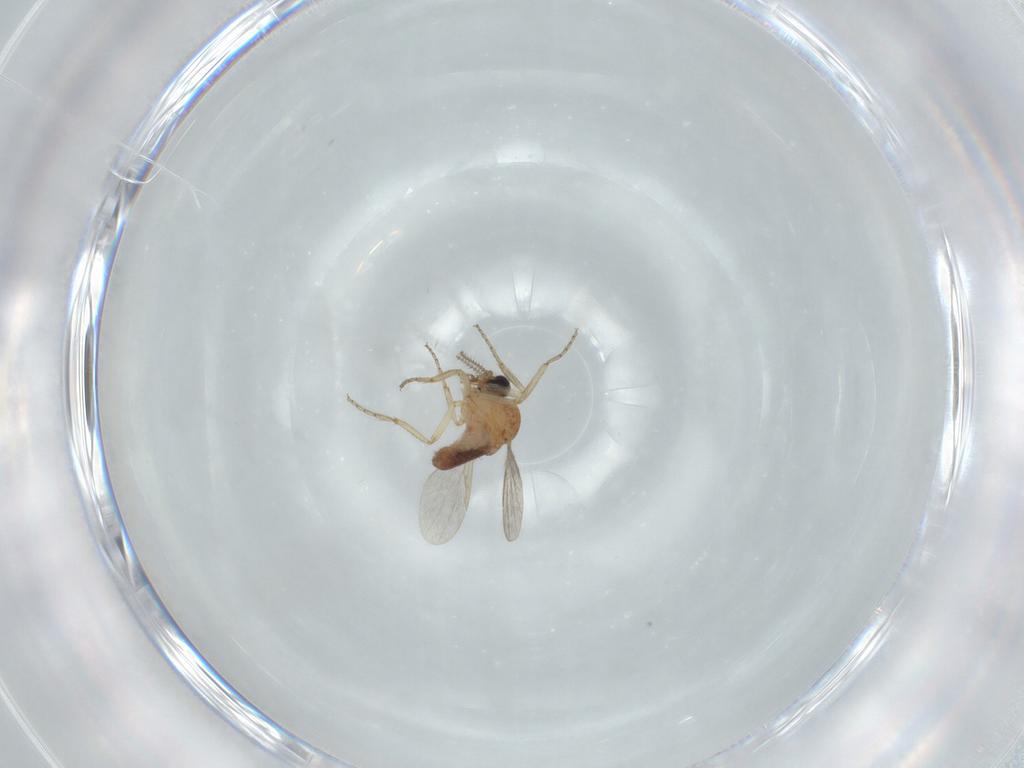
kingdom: Animalia
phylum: Arthropoda
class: Insecta
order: Diptera
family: Ceratopogonidae
